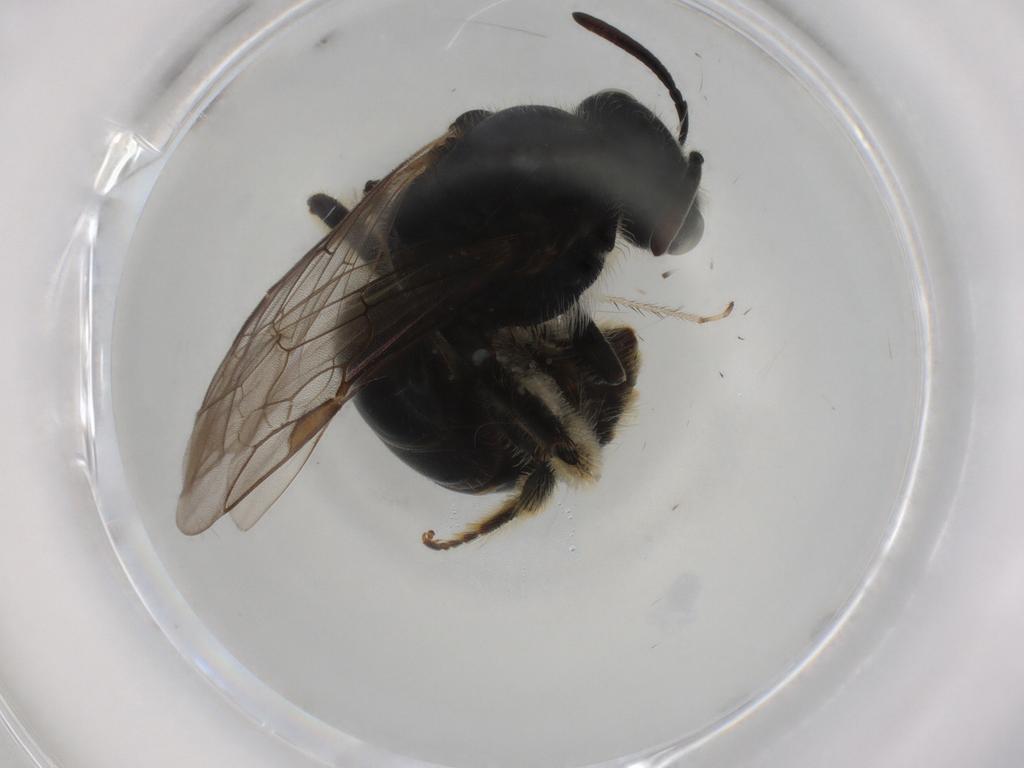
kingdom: Animalia
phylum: Arthropoda
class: Insecta
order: Hymenoptera
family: Halictidae
